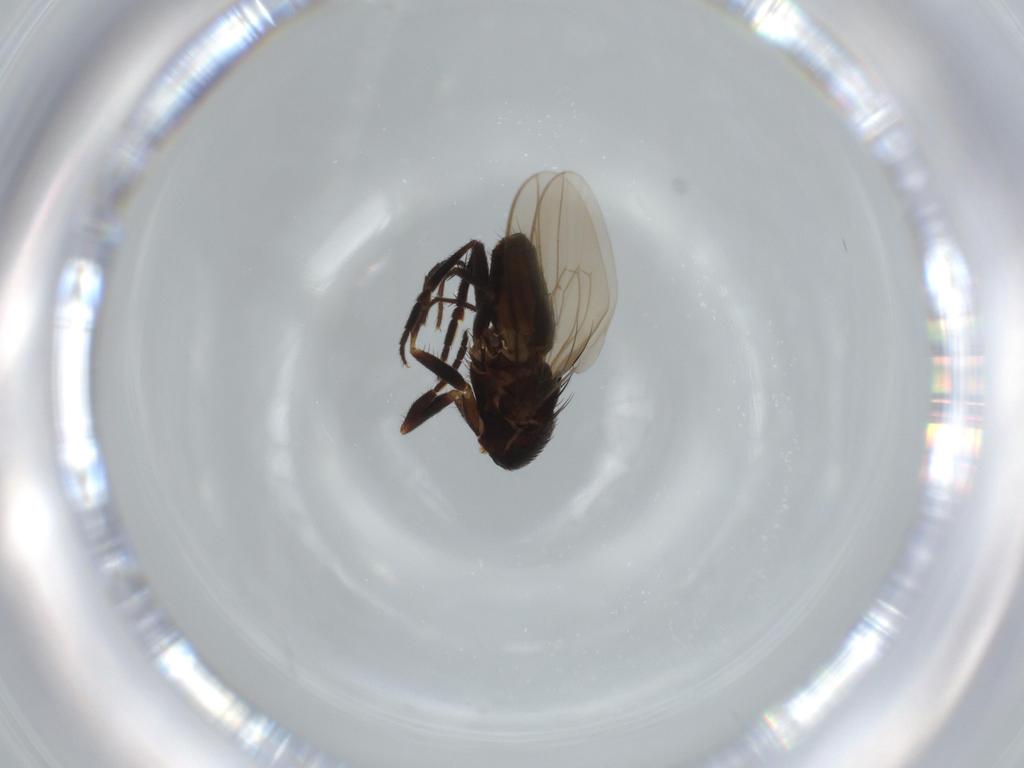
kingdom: Animalia
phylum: Arthropoda
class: Insecta
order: Diptera
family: Sphaeroceridae
